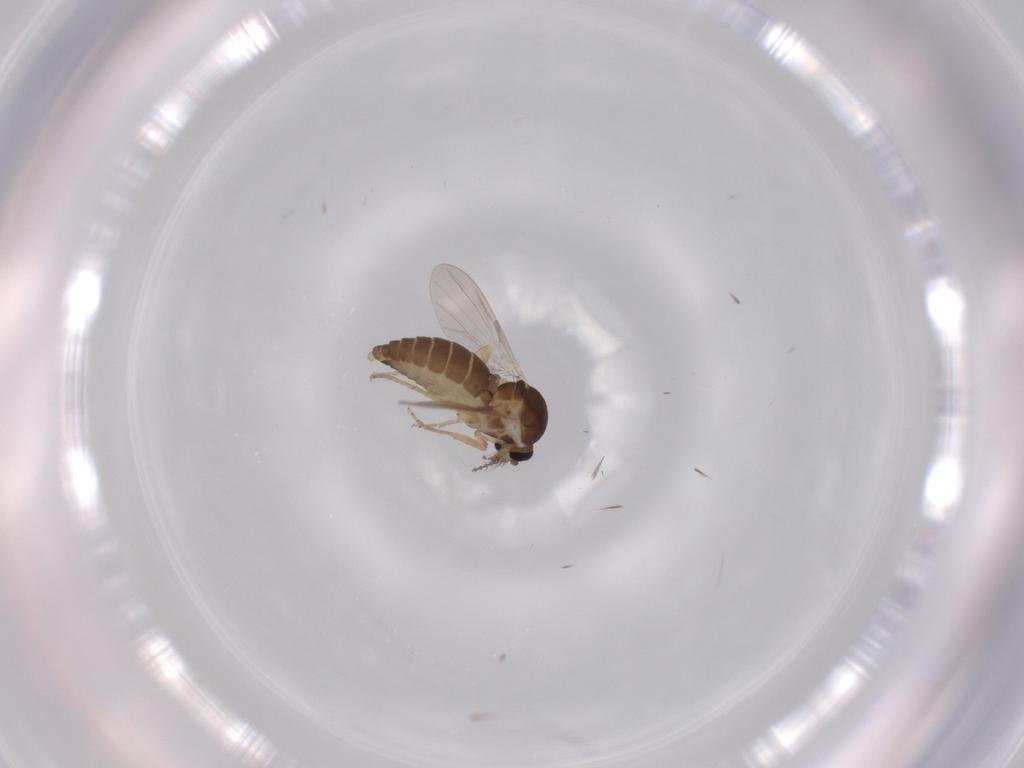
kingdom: Animalia
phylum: Arthropoda
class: Insecta
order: Diptera
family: Ceratopogonidae
